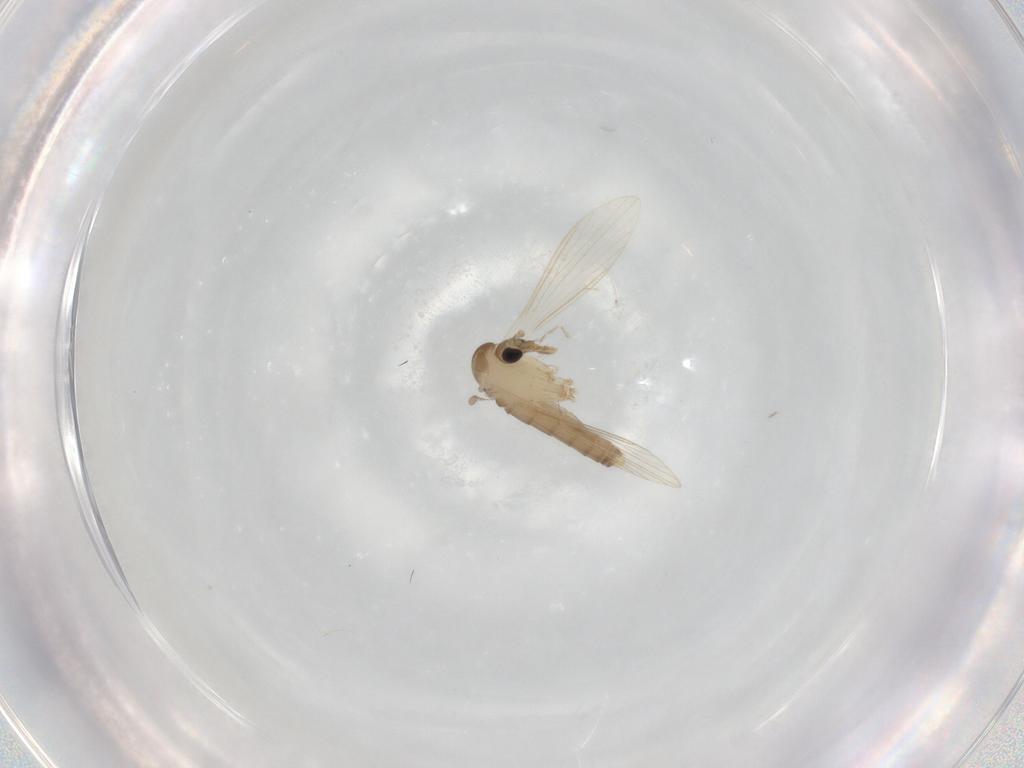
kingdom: Animalia
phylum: Arthropoda
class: Insecta
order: Diptera
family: Psychodidae
